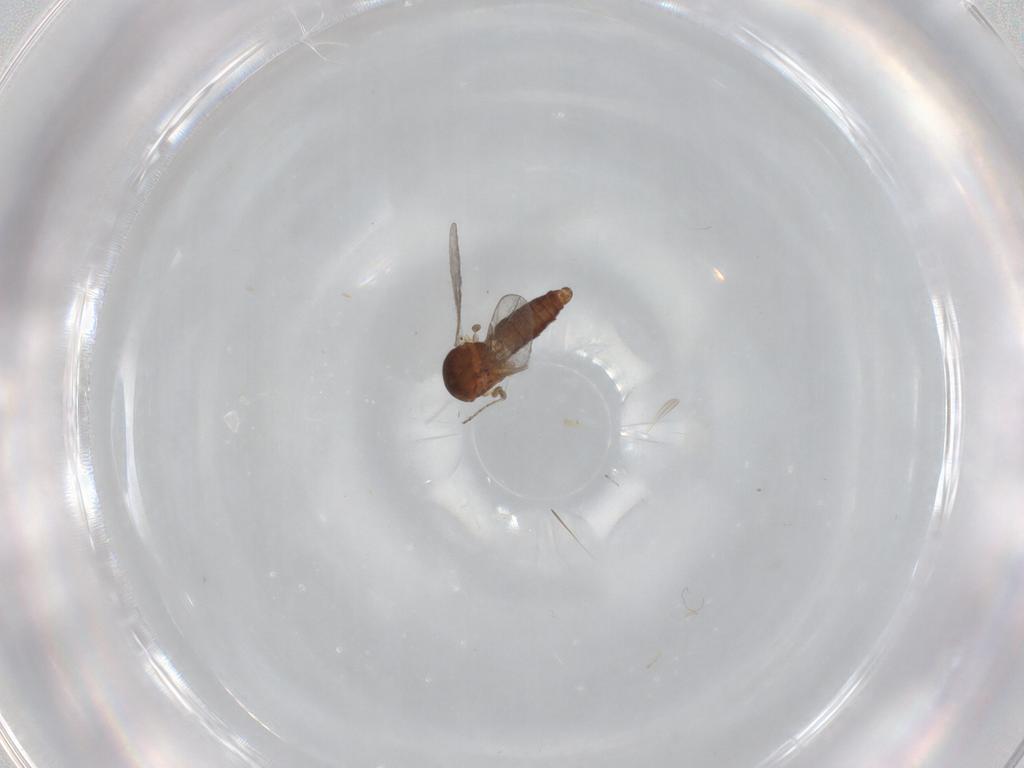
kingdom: Animalia
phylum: Arthropoda
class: Insecta
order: Diptera
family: Ceratopogonidae
